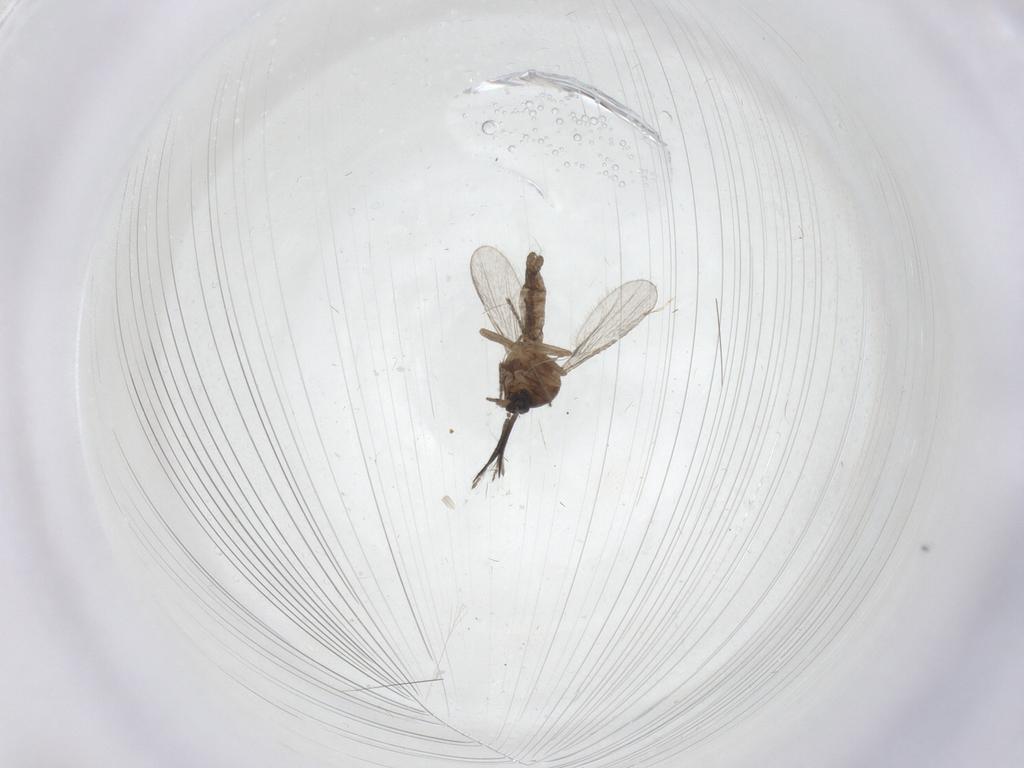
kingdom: Animalia
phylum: Arthropoda
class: Insecta
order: Diptera
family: Ceratopogonidae
